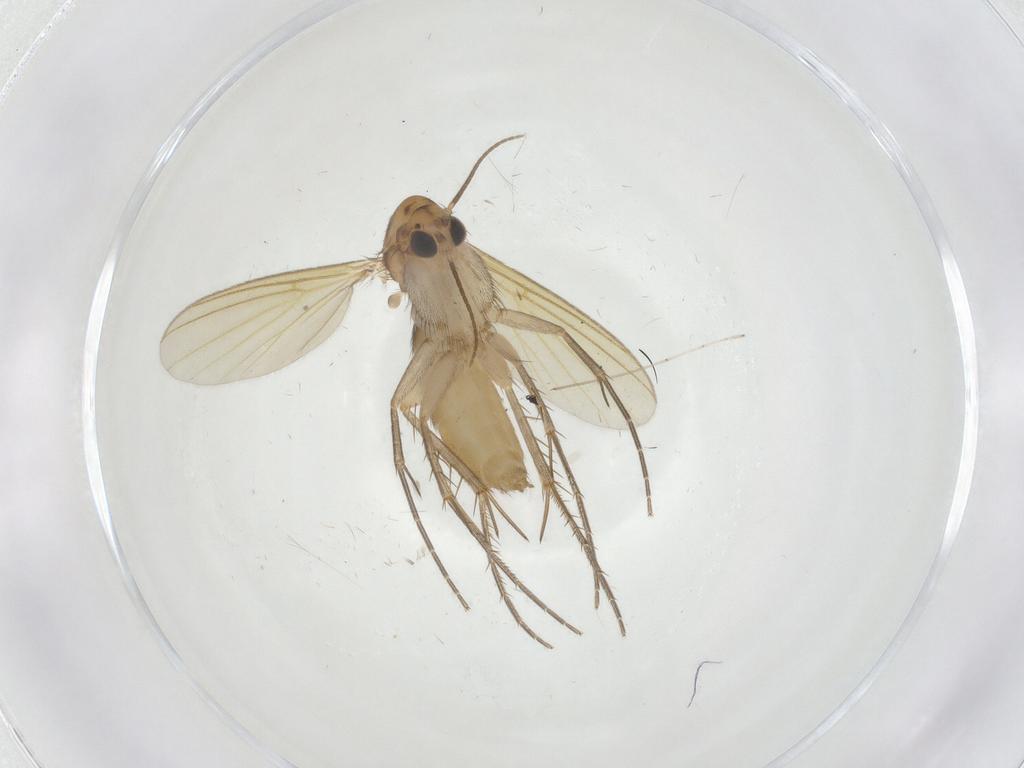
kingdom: Animalia
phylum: Arthropoda
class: Insecta
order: Diptera
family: Mycetophilidae
